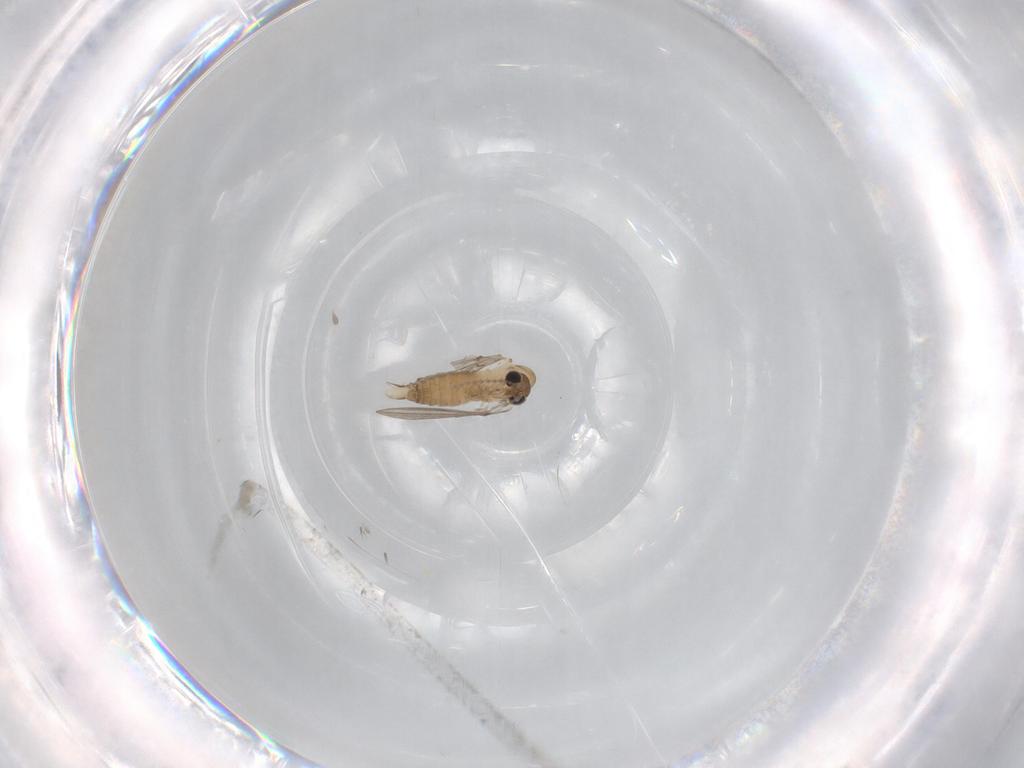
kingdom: Animalia
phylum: Arthropoda
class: Insecta
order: Diptera
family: Psychodidae
